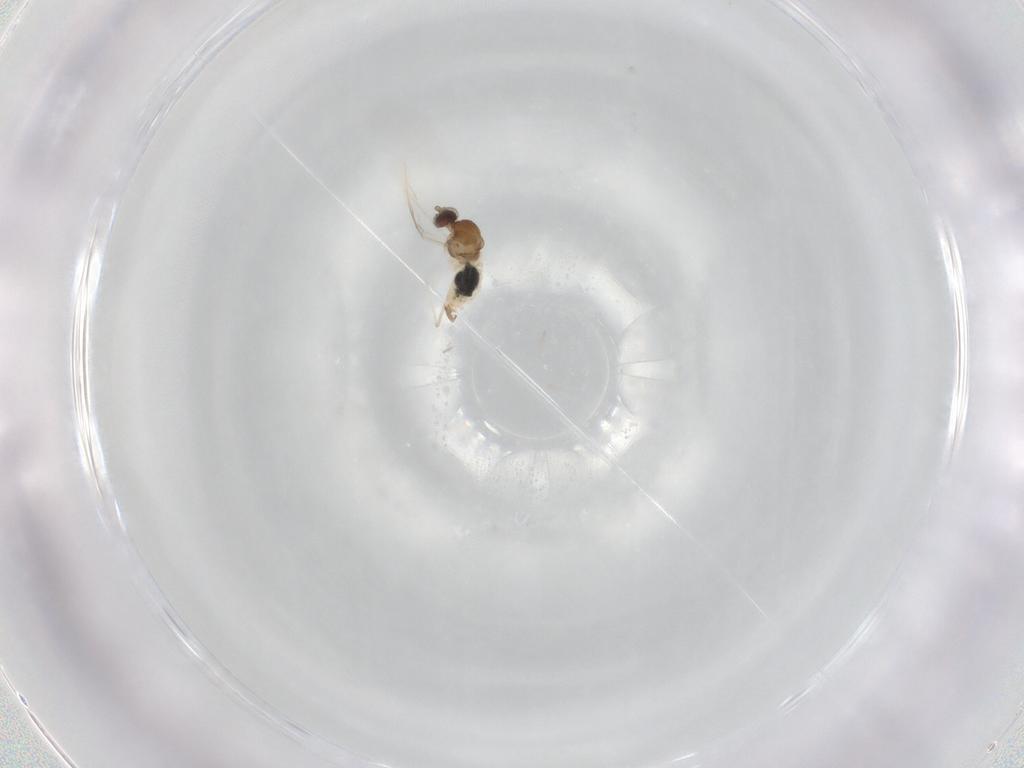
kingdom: Animalia
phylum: Arthropoda
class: Insecta
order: Diptera
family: Cecidomyiidae
